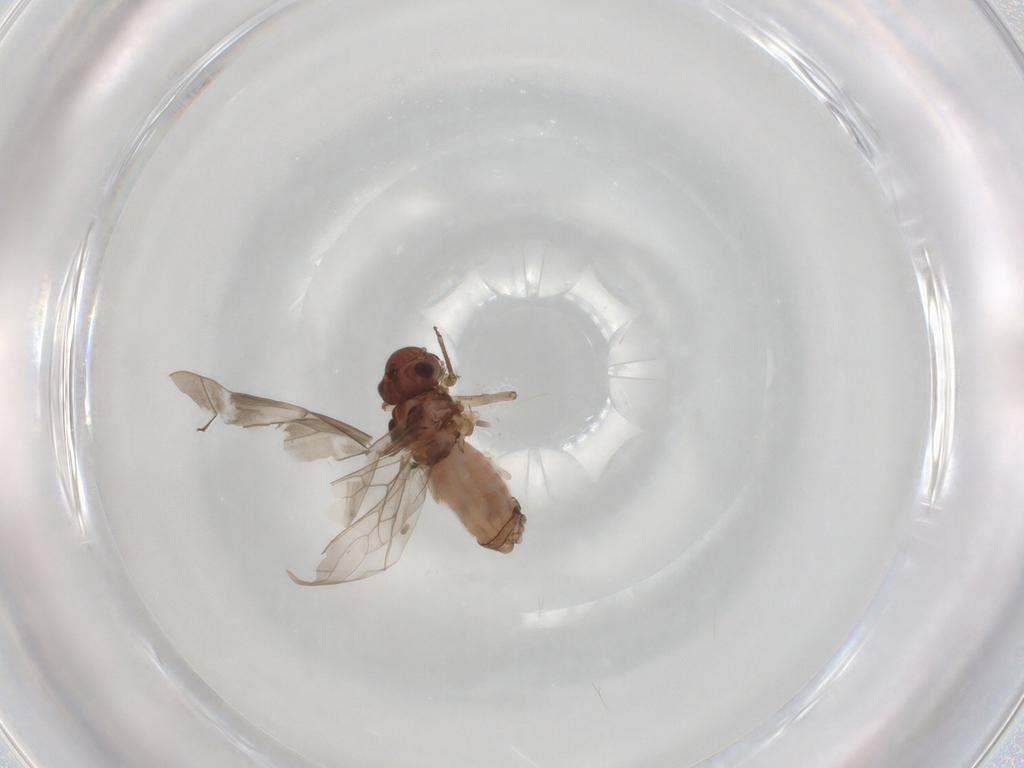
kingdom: Animalia
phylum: Arthropoda
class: Insecta
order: Psocodea
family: Peripsocidae
